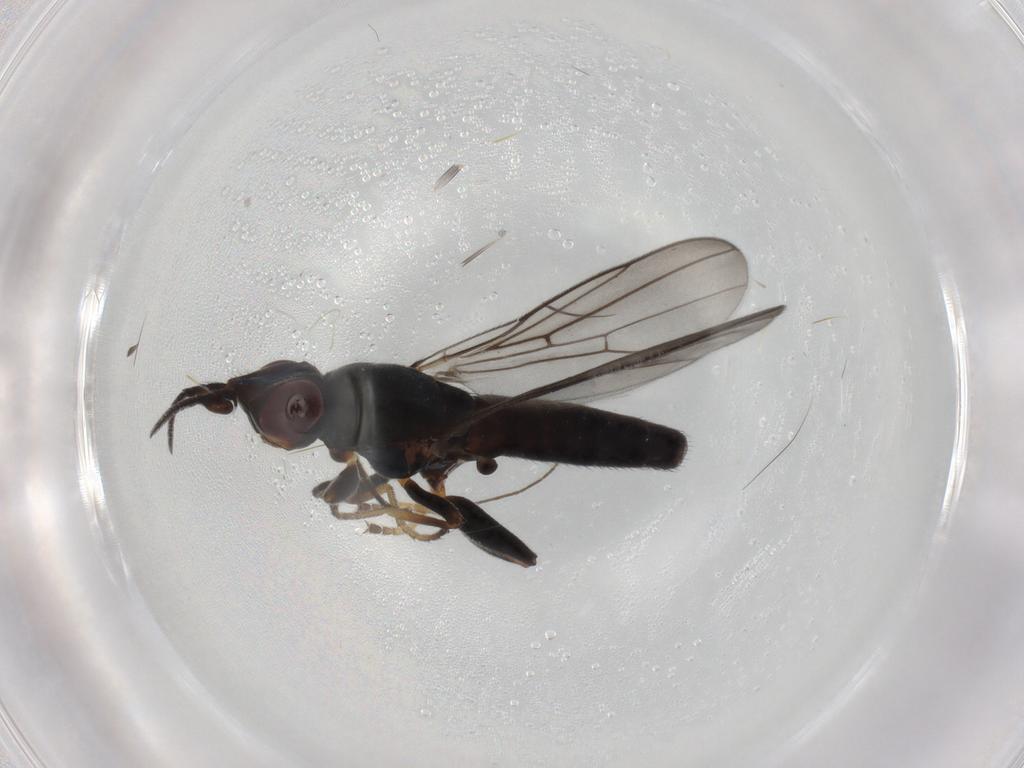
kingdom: Animalia
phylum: Arthropoda
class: Insecta
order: Diptera
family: Chloropidae
